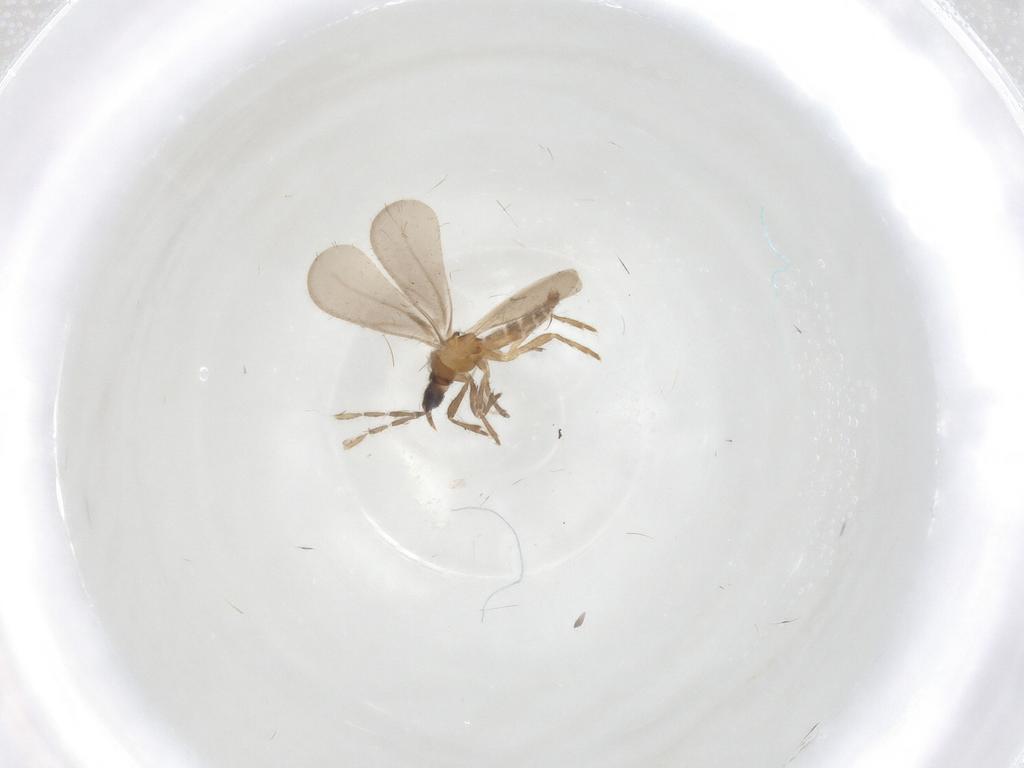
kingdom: Animalia
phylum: Arthropoda
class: Insecta
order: Hemiptera
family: Enicocephalidae
